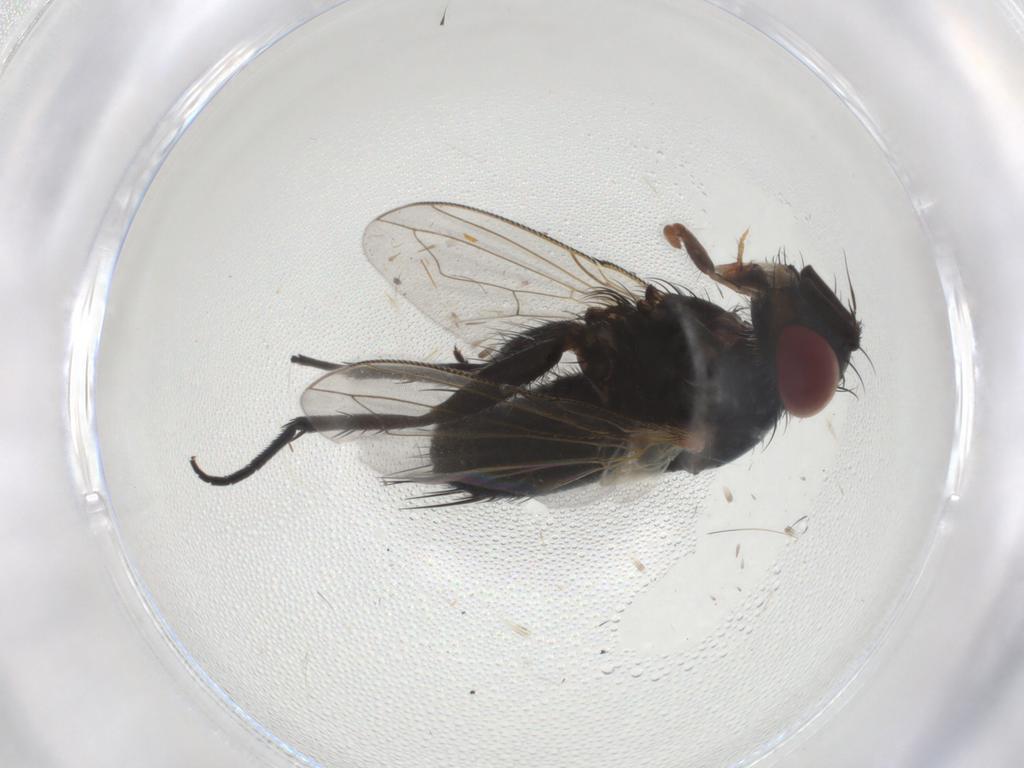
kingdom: Animalia
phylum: Arthropoda
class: Insecta
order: Diptera
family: Tachinidae
